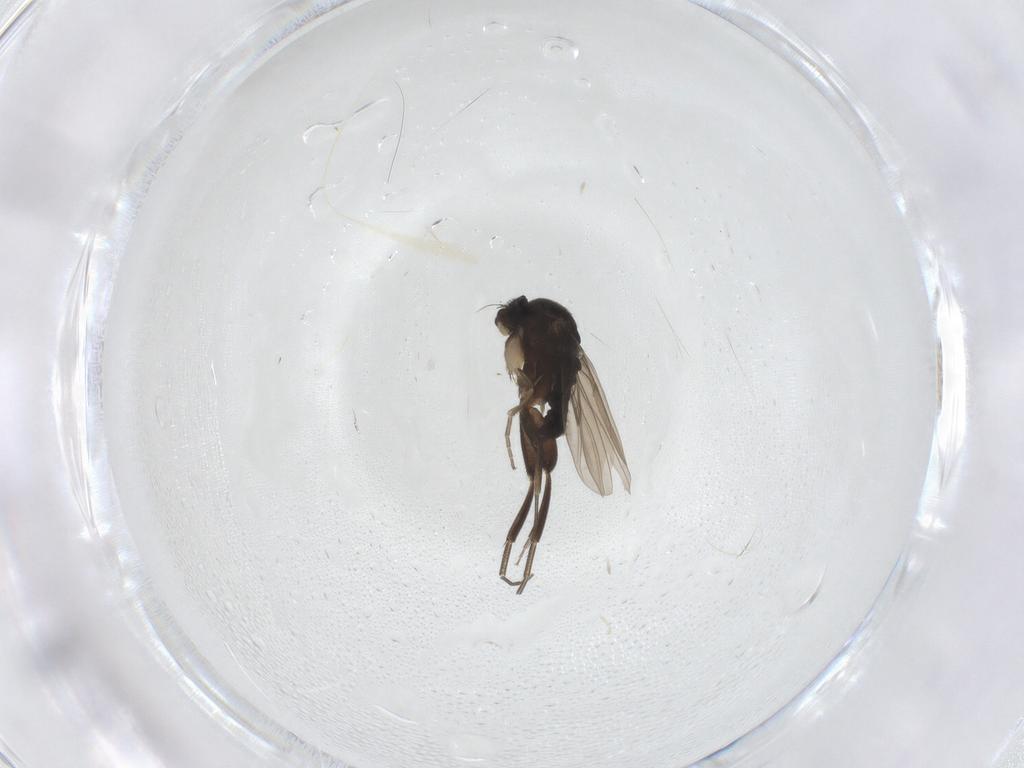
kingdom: Animalia
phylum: Arthropoda
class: Insecta
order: Diptera
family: Phoridae
